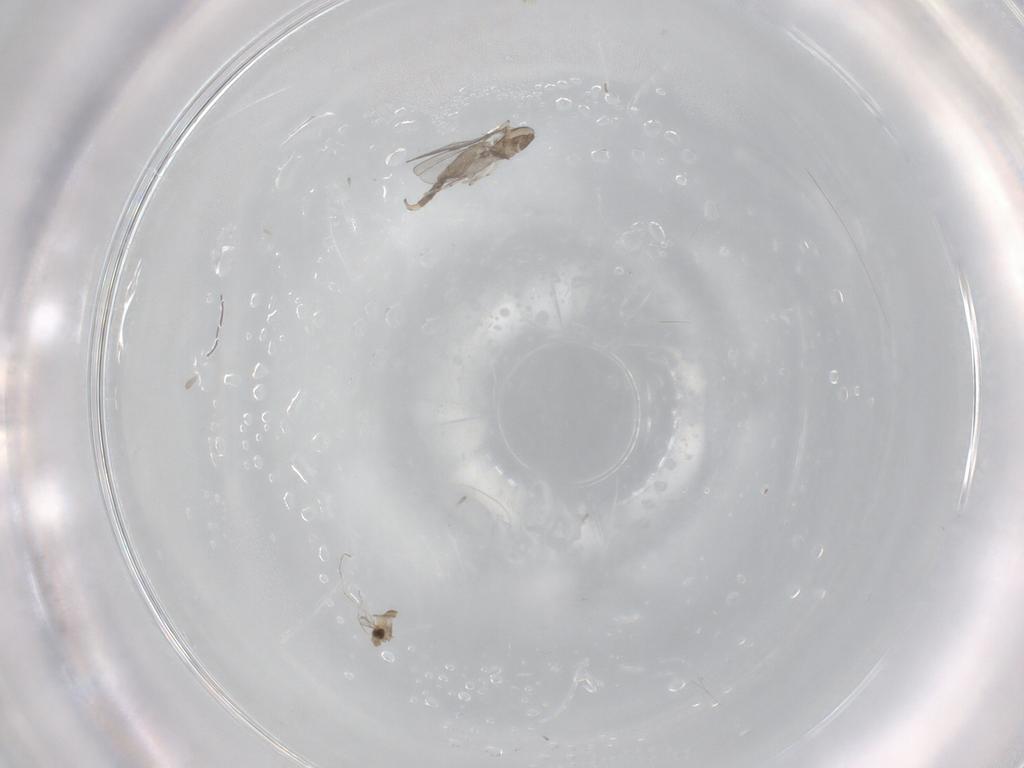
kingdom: Animalia
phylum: Arthropoda
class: Insecta
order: Diptera
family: Cecidomyiidae
